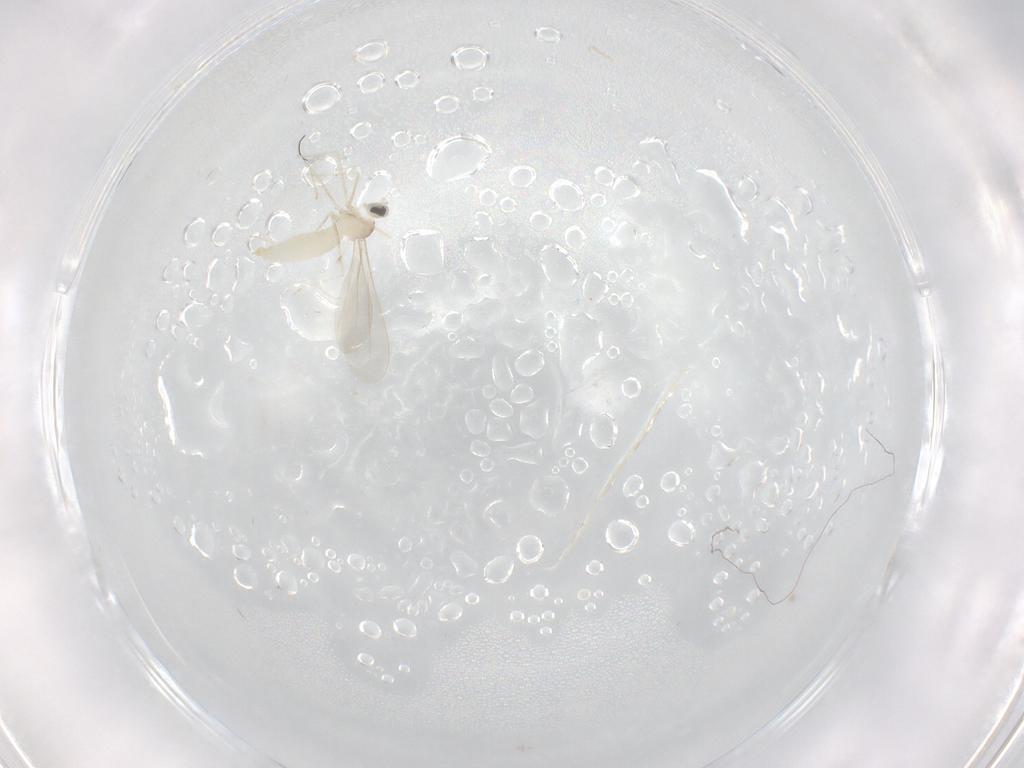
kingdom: Animalia
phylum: Arthropoda
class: Insecta
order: Diptera
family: Cecidomyiidae
